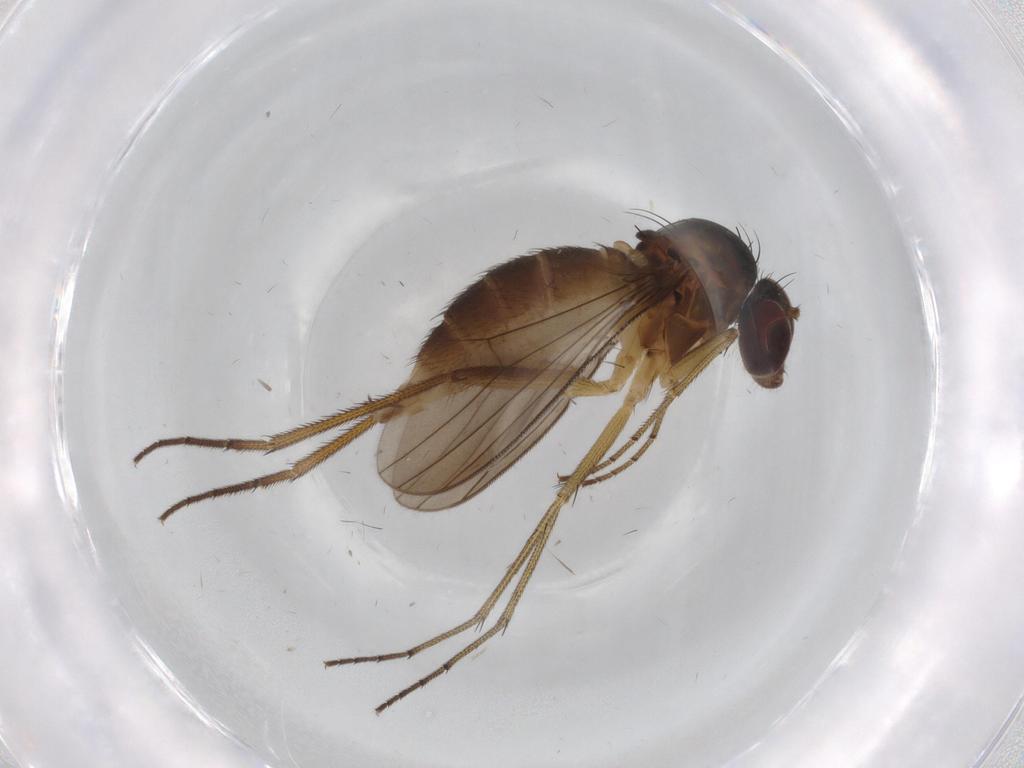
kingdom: Animalia
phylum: Arthropoda
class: Insecta
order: Diptera
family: Dolichopodidae
